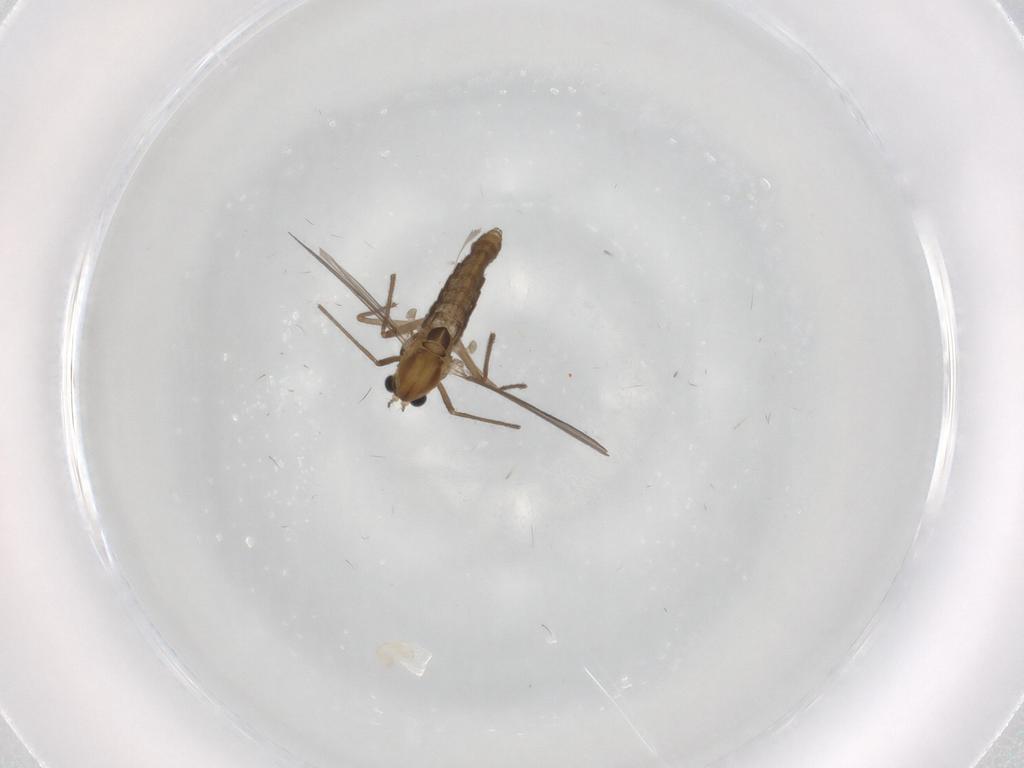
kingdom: Animalia
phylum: Arthropoda
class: Insecta
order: Diptera
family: Chironomidae
